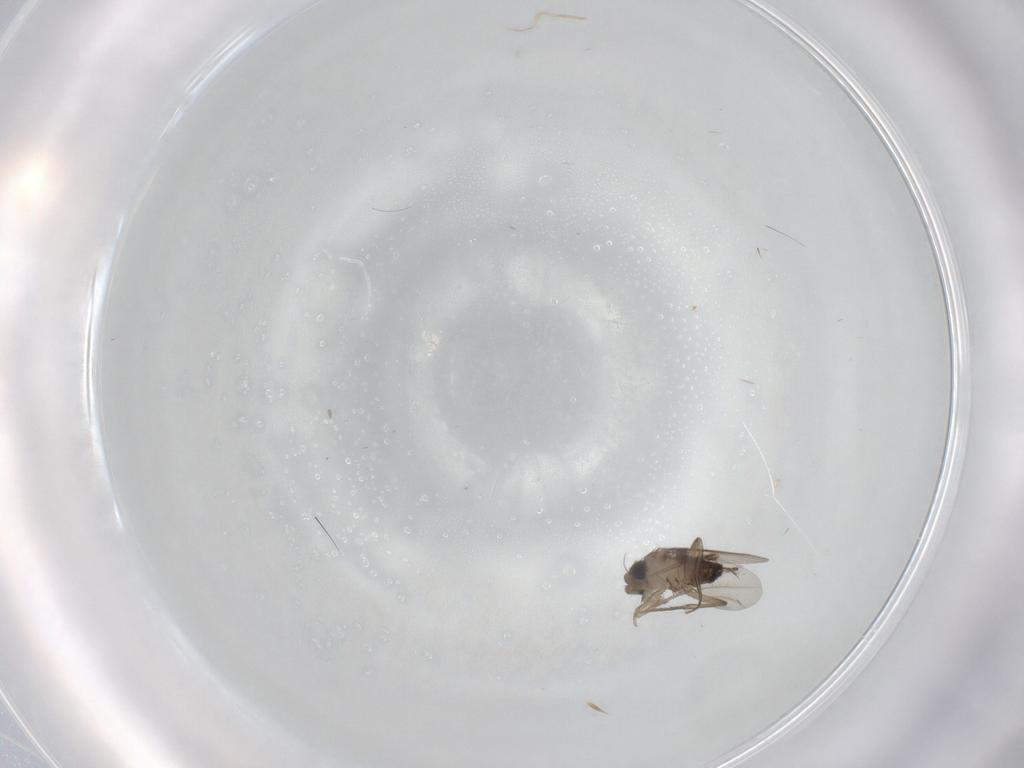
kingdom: Animalia
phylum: Arthropoda
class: Insecta
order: Diptera
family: Phoridae
